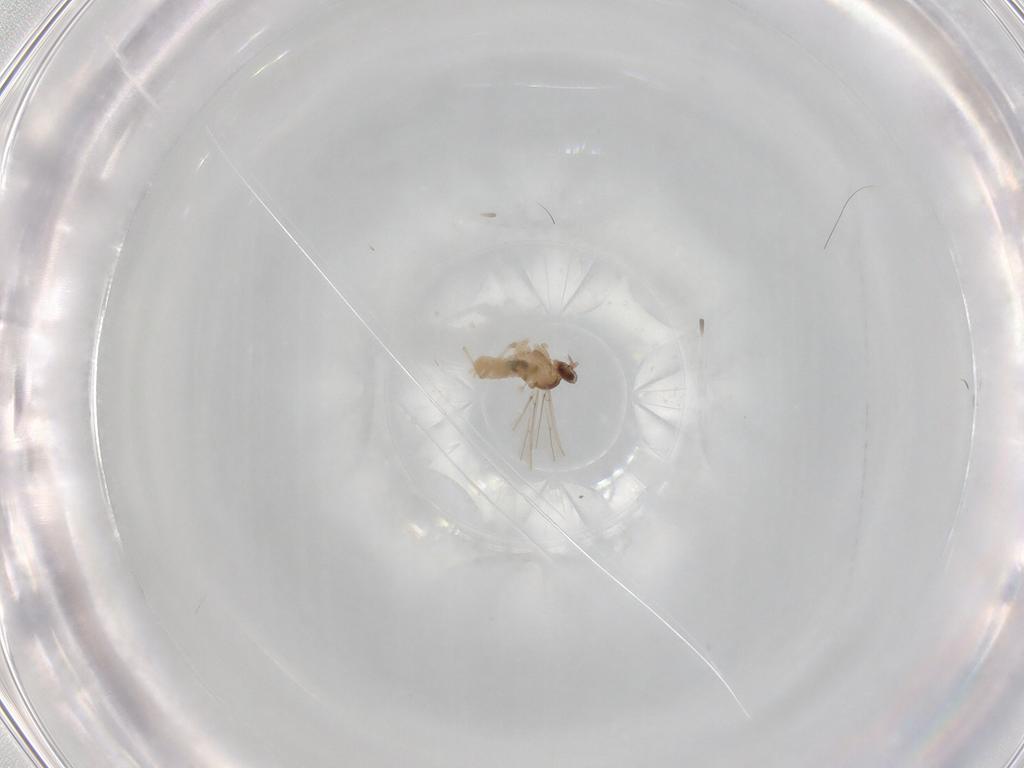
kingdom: Animalia
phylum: Arthropoda
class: Insecta
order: Diptera
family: Cecidomyiidae
